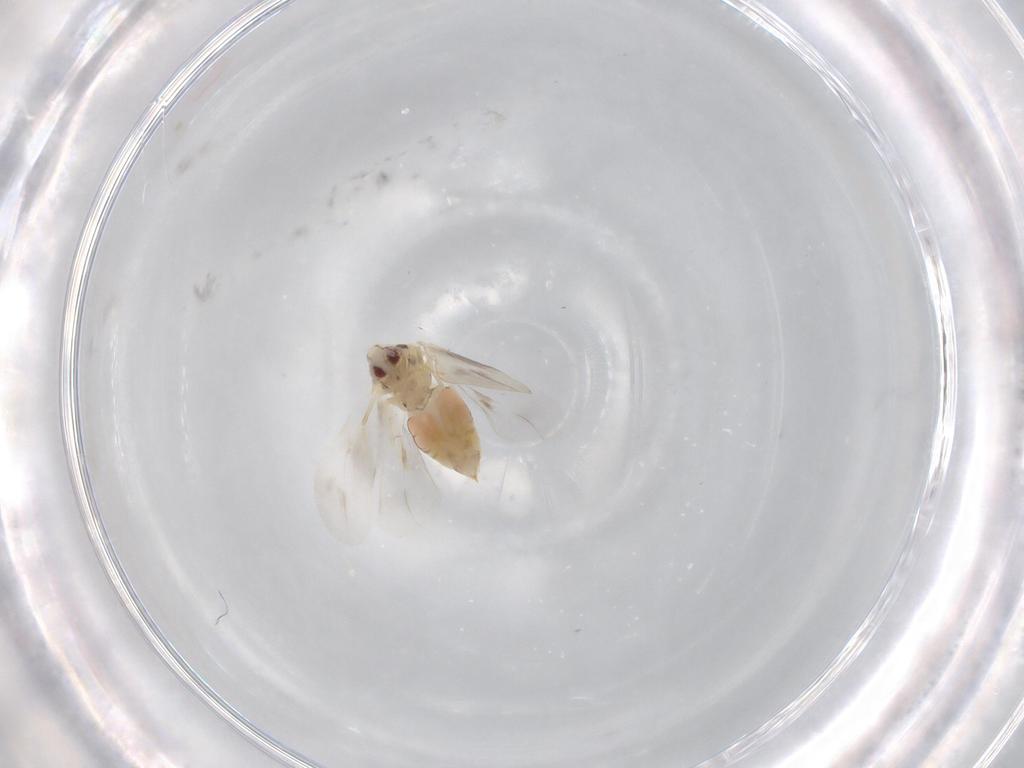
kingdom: Animalia
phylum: Arthropoda
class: Insecta
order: Hemiptera
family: Aleyrodidae
